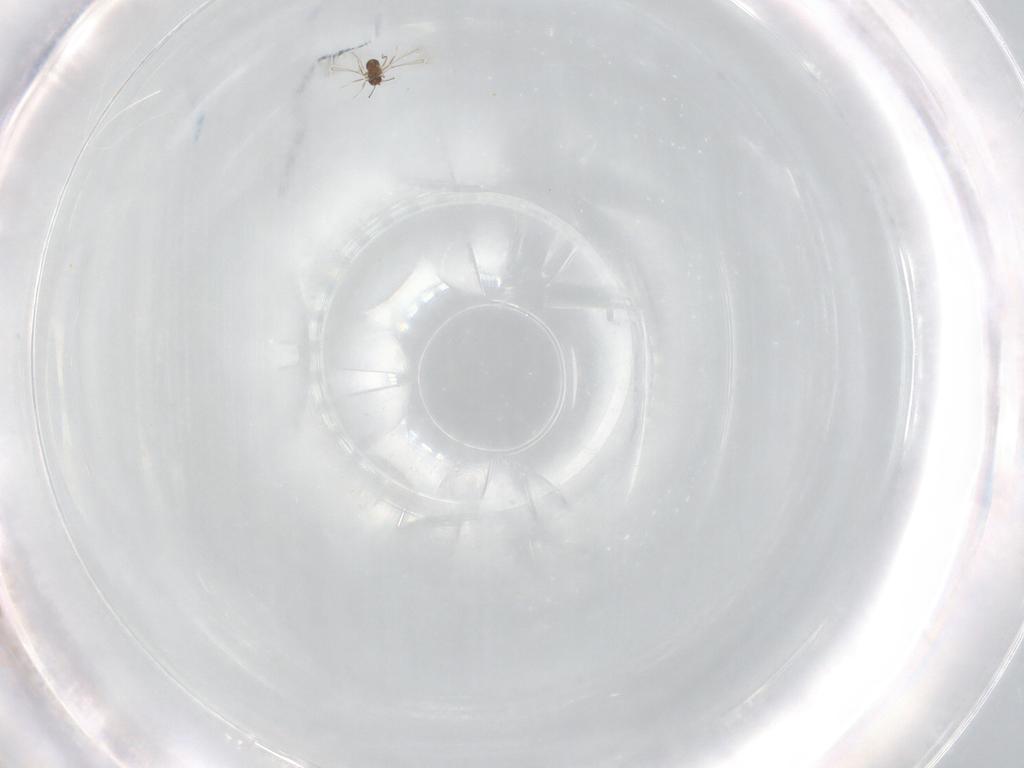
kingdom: Animalia
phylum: Arthropoda
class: Insecta
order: Hymenoptera
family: Mymaridae
